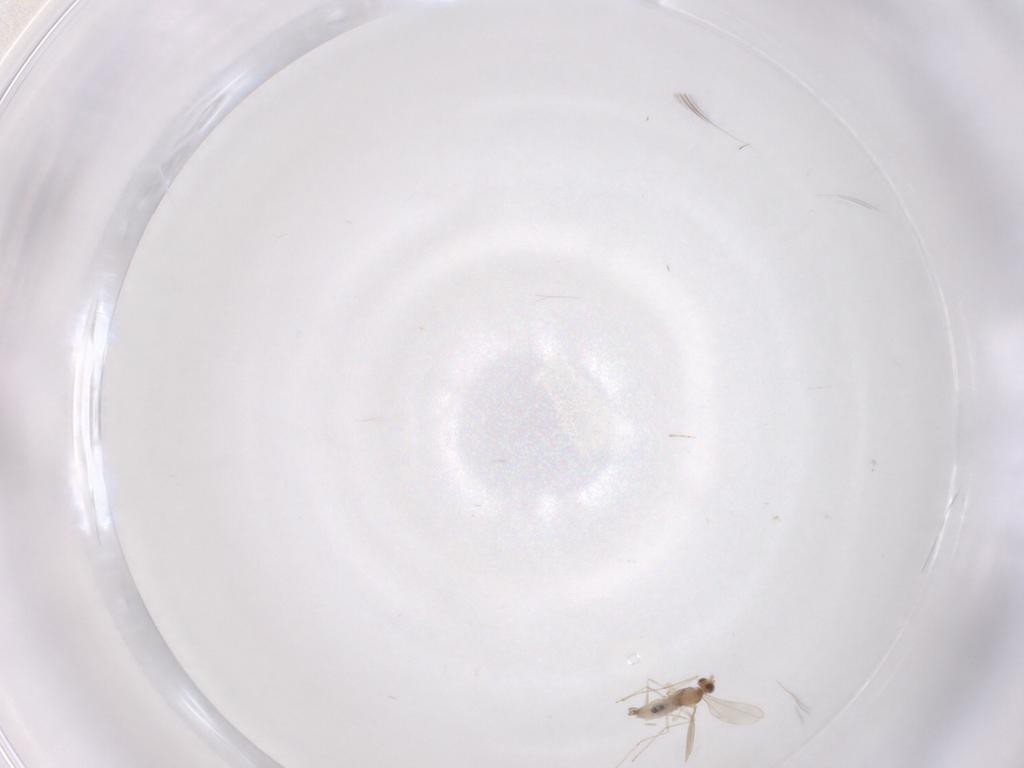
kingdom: Animalia
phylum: Arthropoda
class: Insecta
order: Diptera
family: Cecidomyiidae
